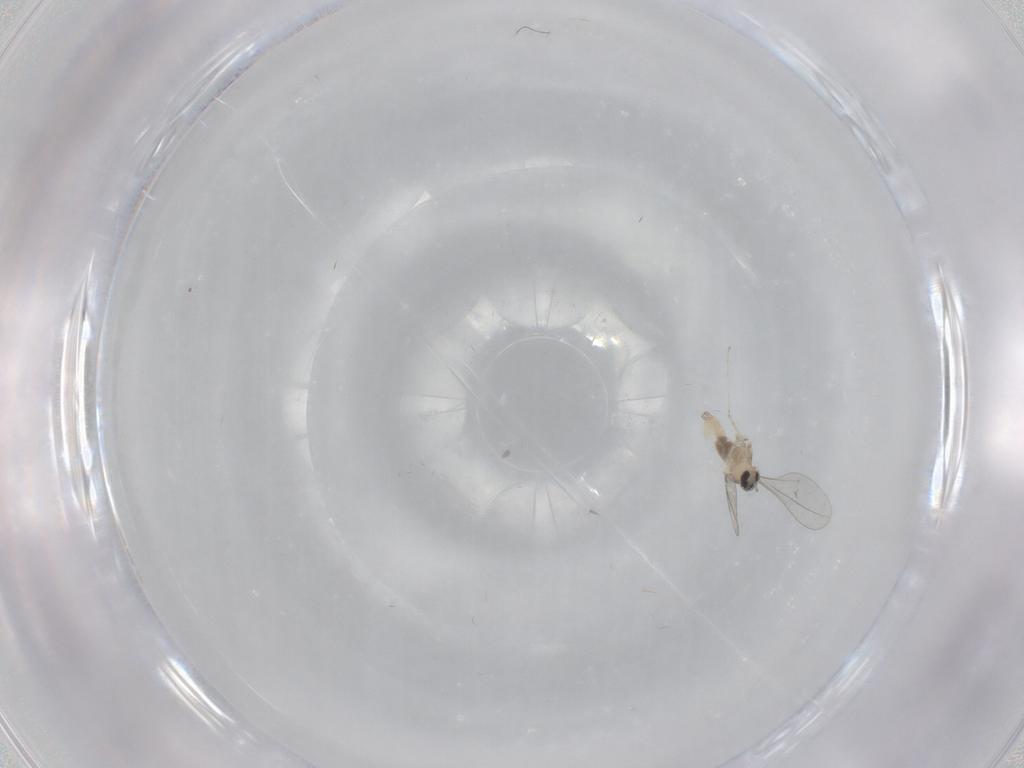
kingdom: Animalia
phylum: Arthropoda
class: Insecta
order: Diptera
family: Cecidomyiidae
